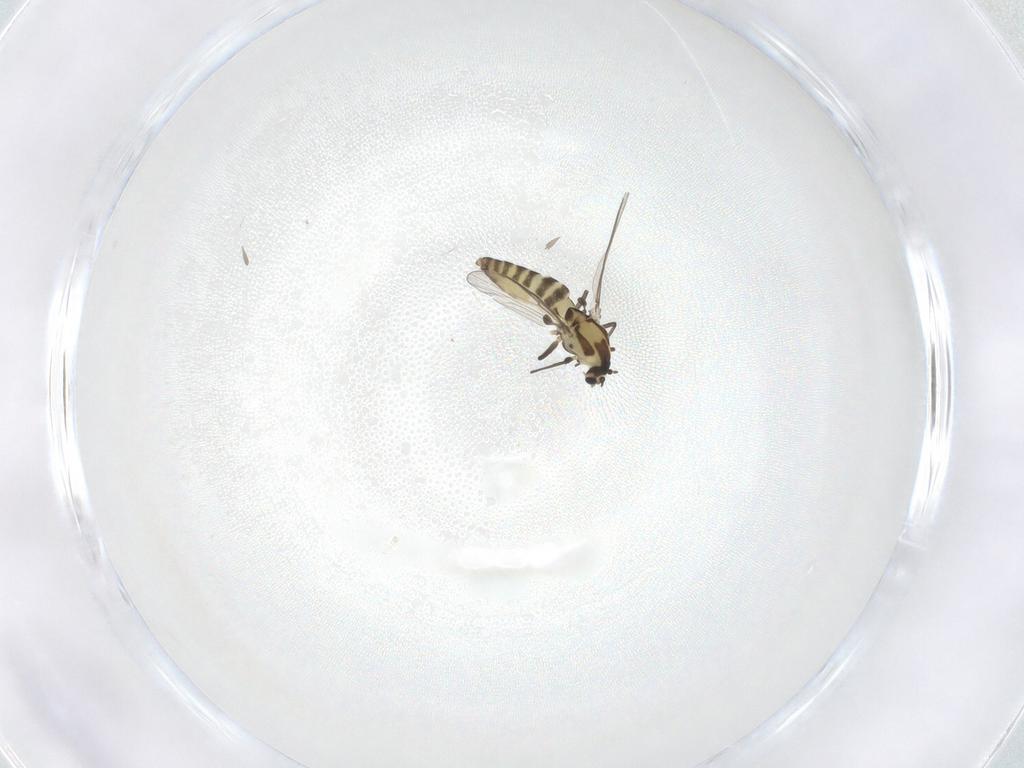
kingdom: Animalia
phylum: Arthropoda
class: Insecta
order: Diptera
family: Chironomidae
